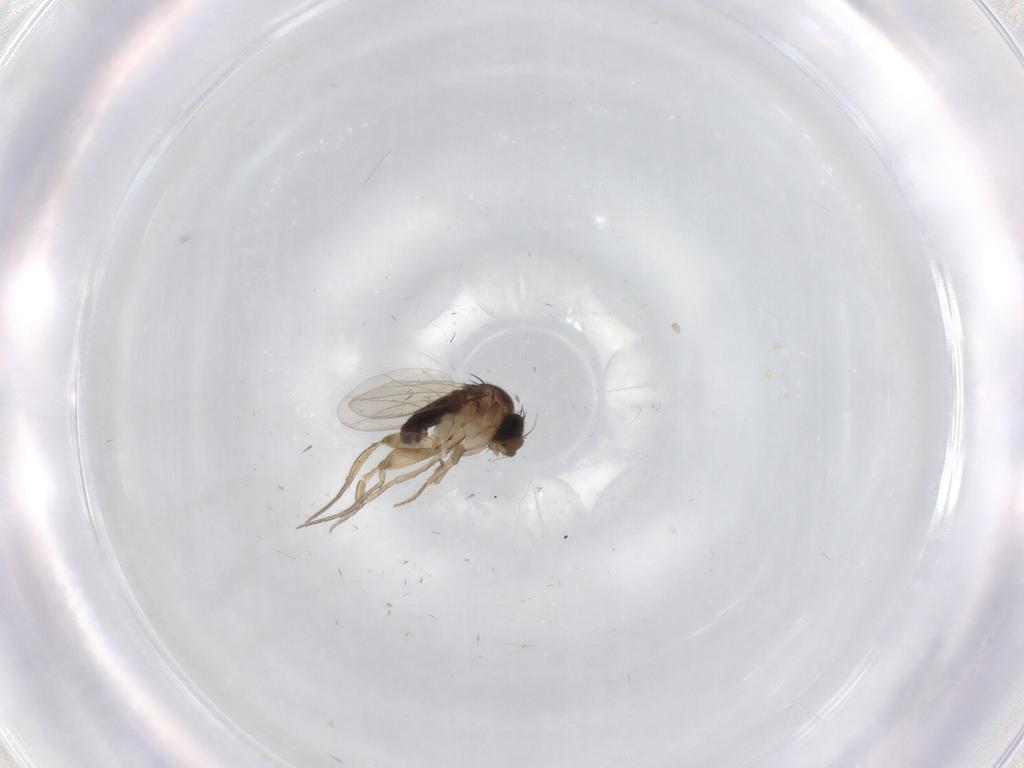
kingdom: Animalia
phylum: Arthropoda
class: Insecta
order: Diptera
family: Phoridae
